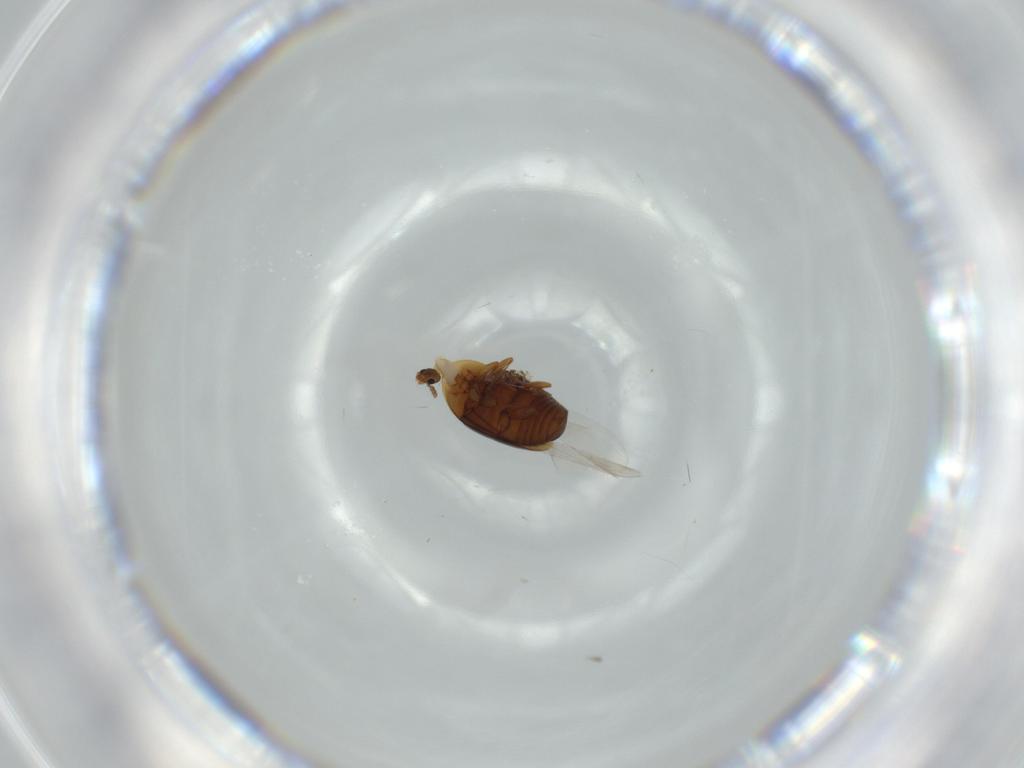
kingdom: Animalia
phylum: Arthropoda
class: Insecta
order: Coleoptera
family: Corylophidae
